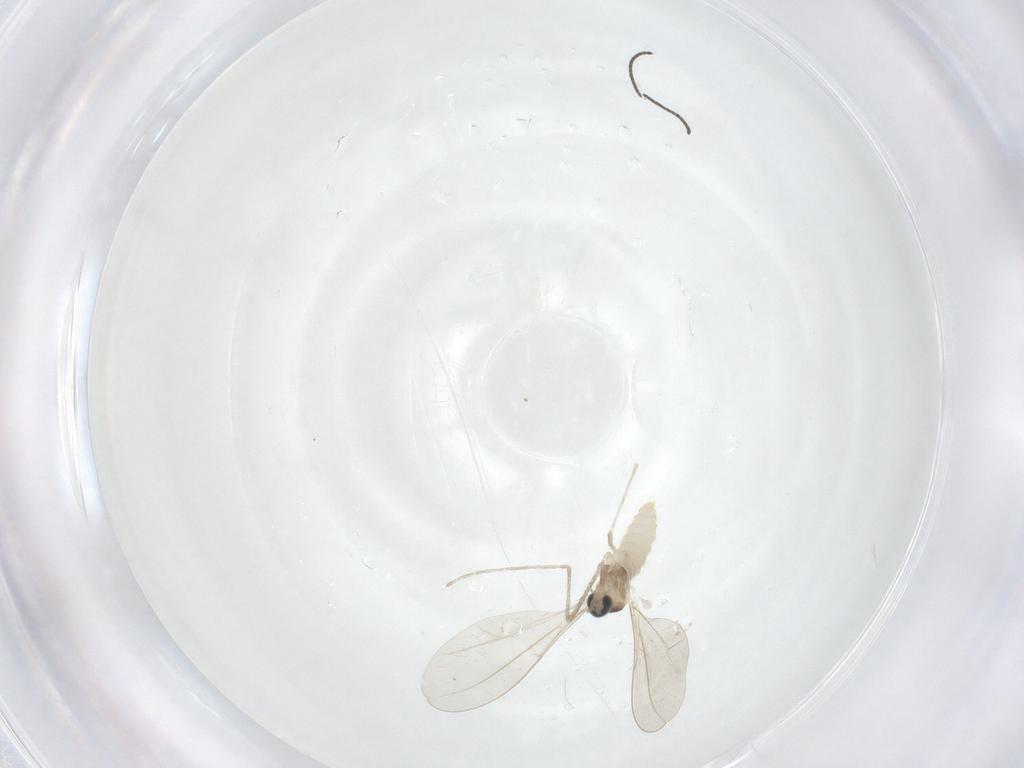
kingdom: Animalia
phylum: Arthropoda
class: Insecta
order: Diptera
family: Cecidomyiidae
